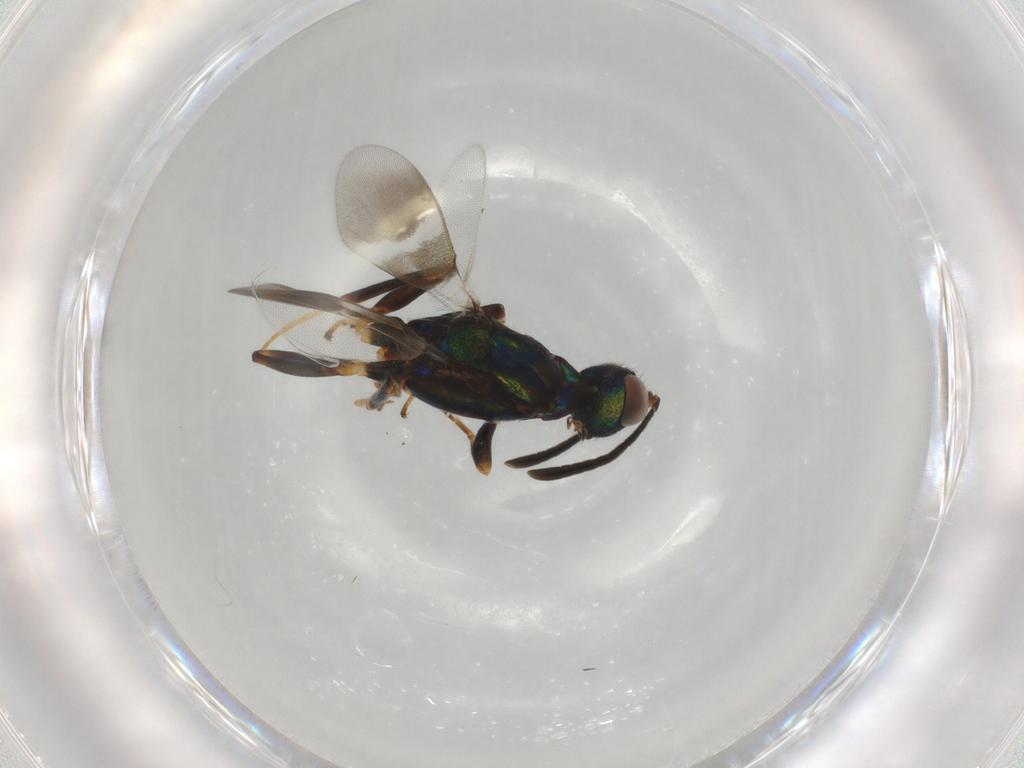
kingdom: Animalia
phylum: Arthropoda
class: Insecta
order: Hymenoptera
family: Eupelmidae
